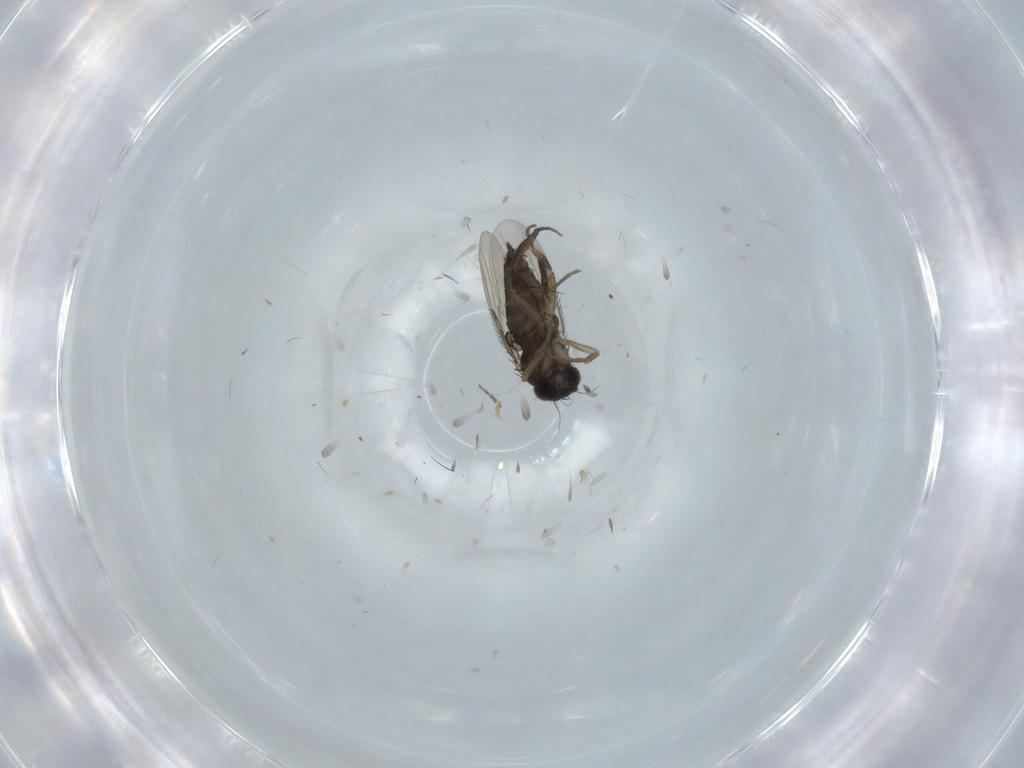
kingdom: Animalia
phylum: Arthropoda
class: Insecta
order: Diptera
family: Phoridae
